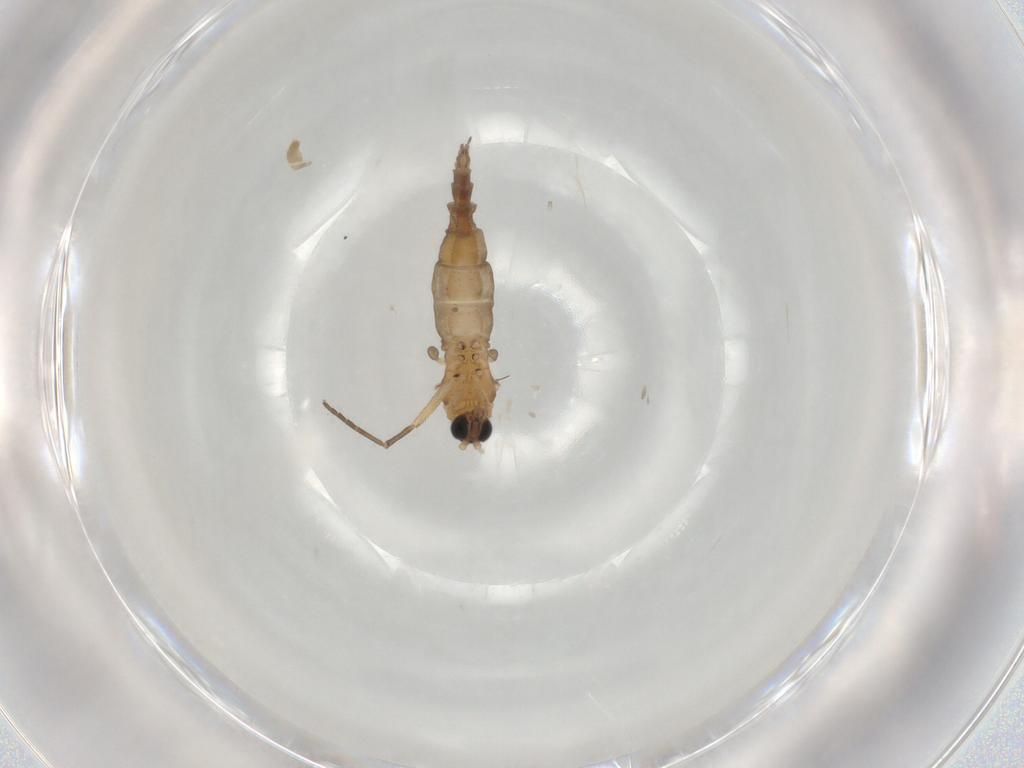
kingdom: Animalia
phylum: Arthropoda
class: Insecta
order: Diptera
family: Sciaridae
